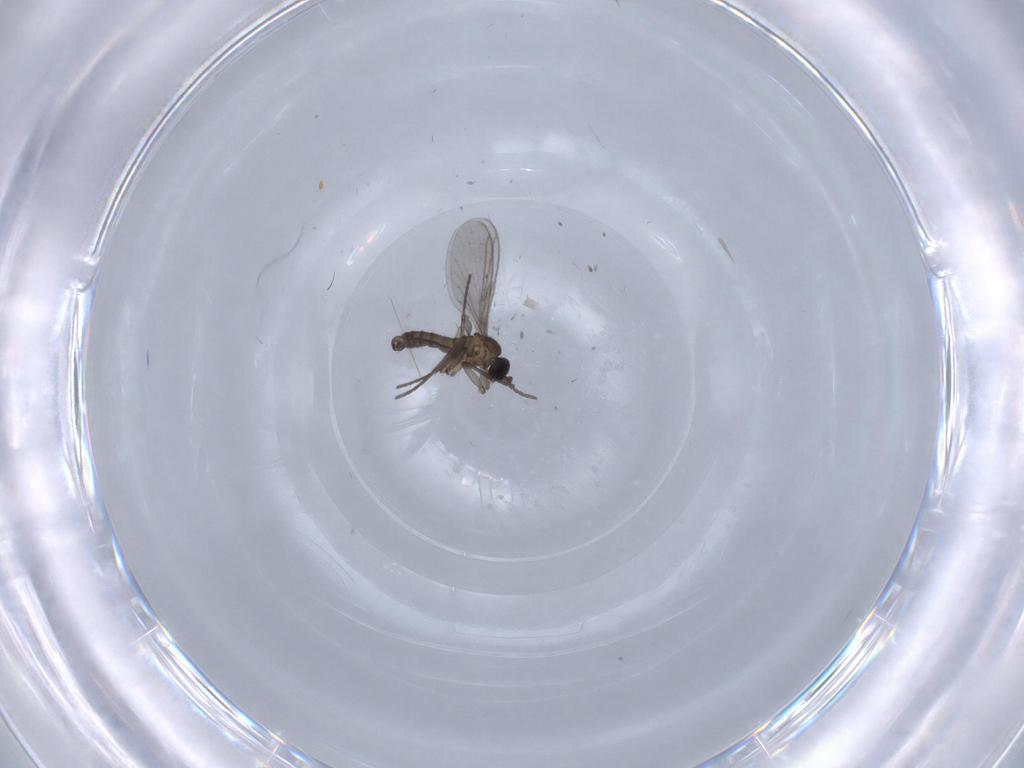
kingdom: Animalia
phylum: Arthropoda
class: Insecta
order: Diptera
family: Chironomidae
